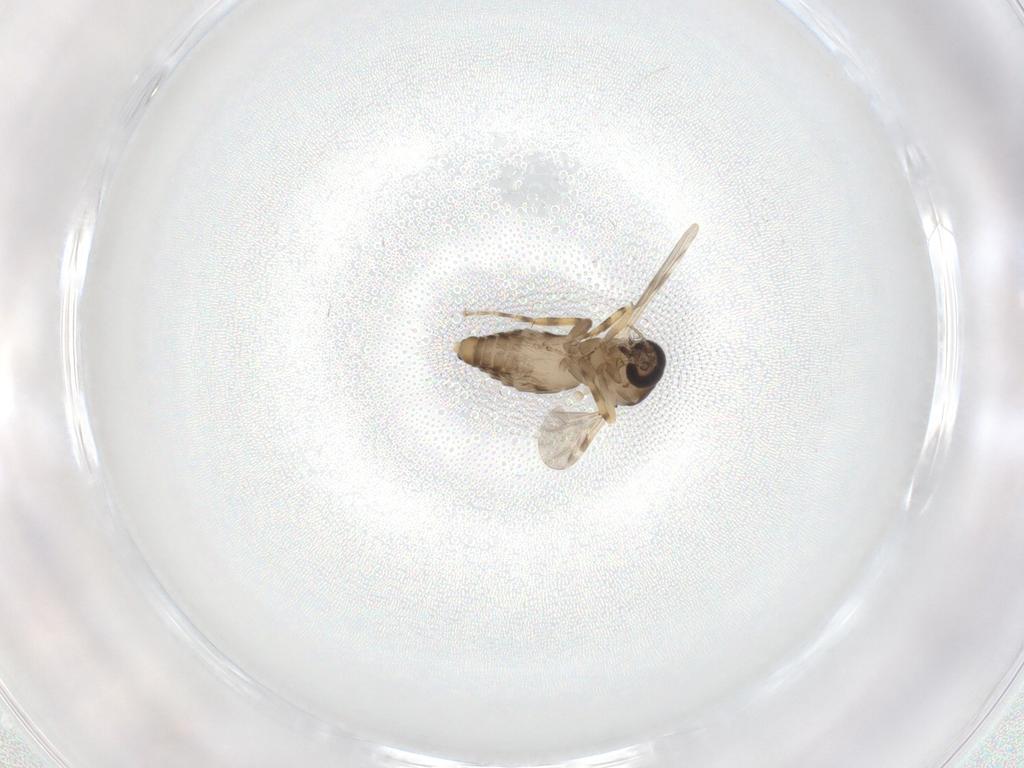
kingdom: Animalia
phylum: Arthropoda
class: Insecta
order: Diptera
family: Ceratopogonidae
